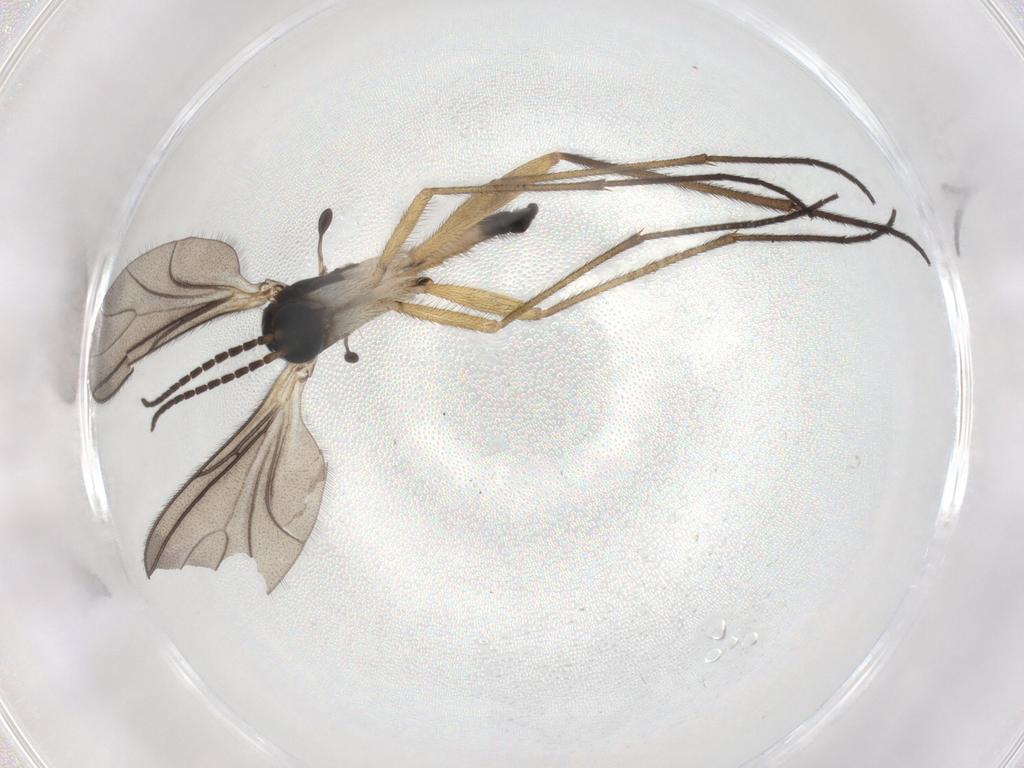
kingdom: Animalia
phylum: Arthropoda
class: Insecta
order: Diptera
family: Sciaridae
